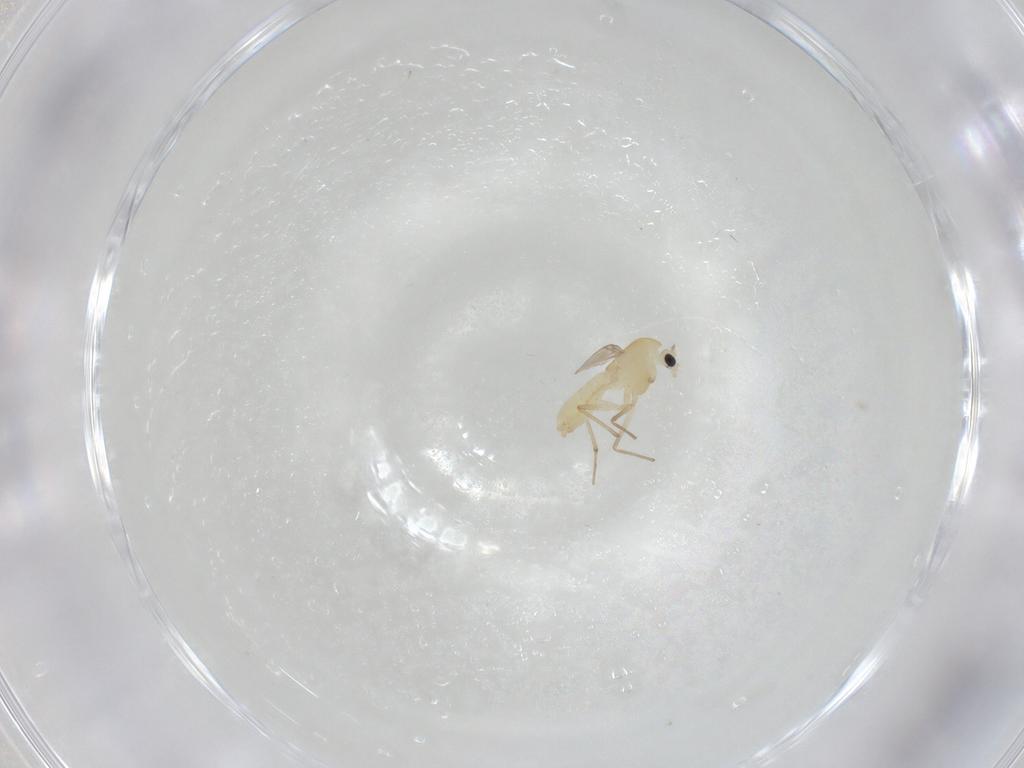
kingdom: Animalia
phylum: Arthropoda
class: Insecta
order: Diptera
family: Chironomidae
